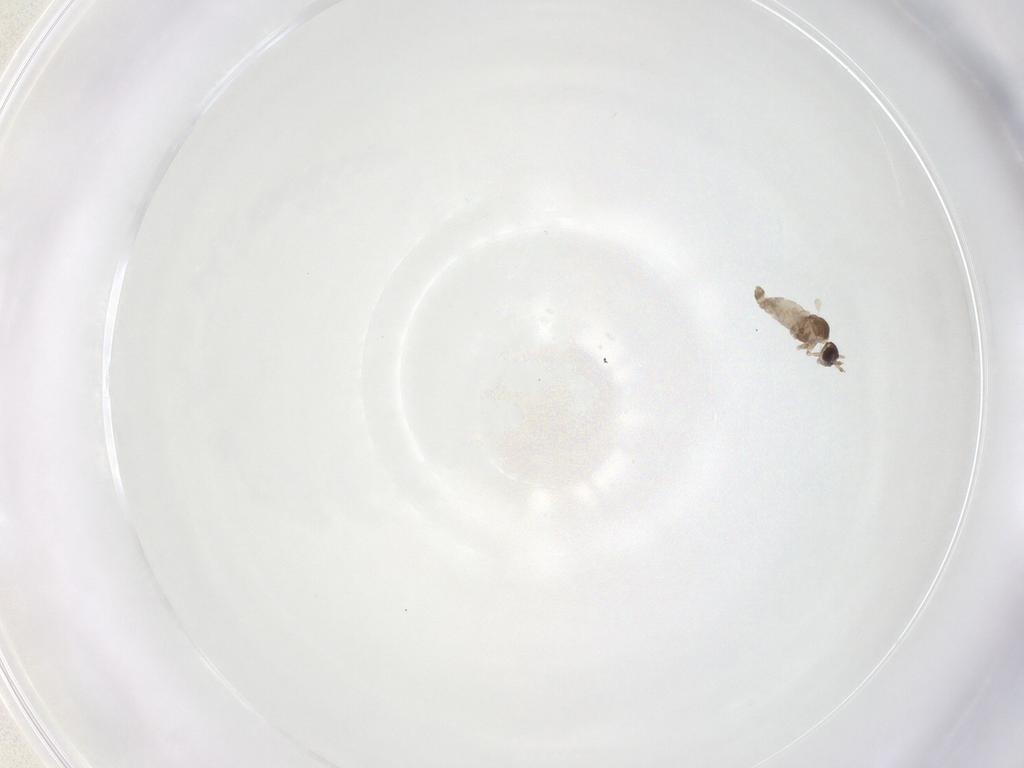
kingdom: Animalia
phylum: Arthropoda
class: Insecta
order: Diptera
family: Cecidomyiidae
